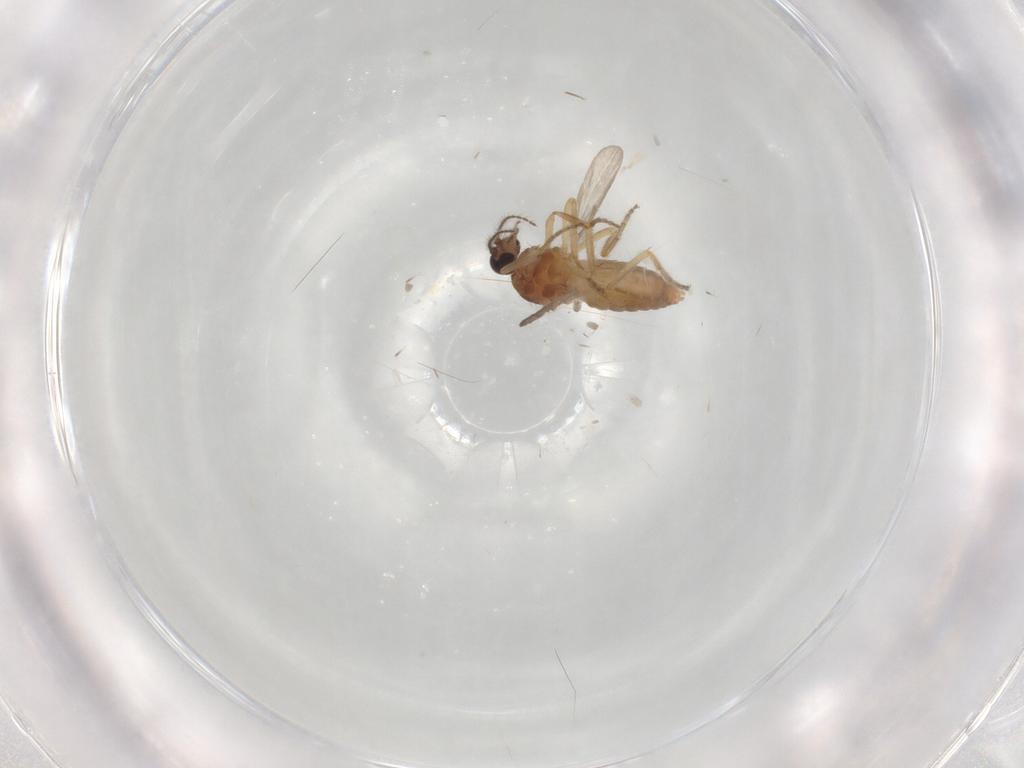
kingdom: Animalia
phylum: Arthropoda
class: Insecta
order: Diptera
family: Ceratopogonidae
